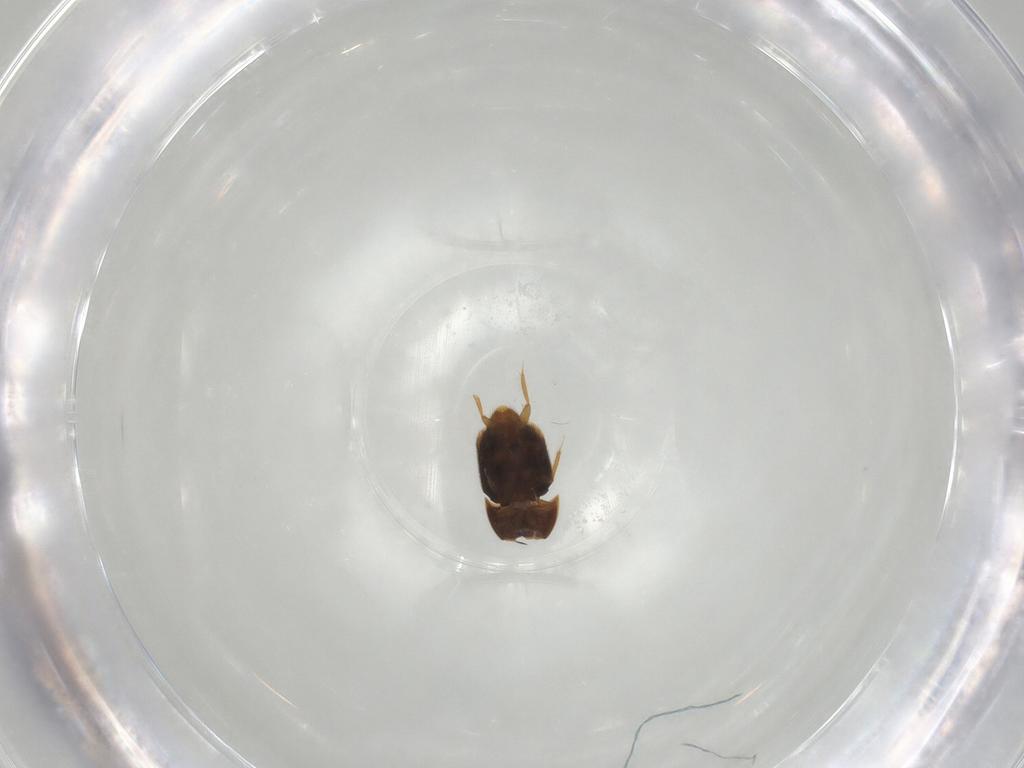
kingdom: Animalia
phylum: Arthropoda
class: Insecta
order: Coleoptera
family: Ptiliidae
